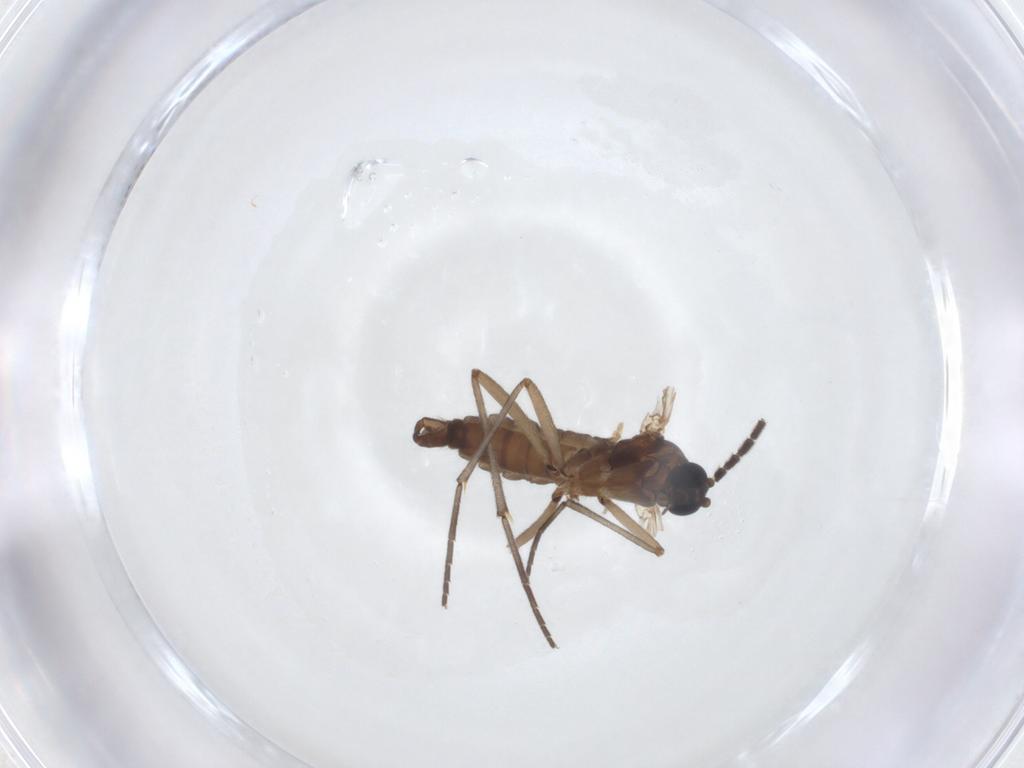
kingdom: Animalia
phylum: Arthropoda
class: Insecta
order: Diptera
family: Sciaridae
